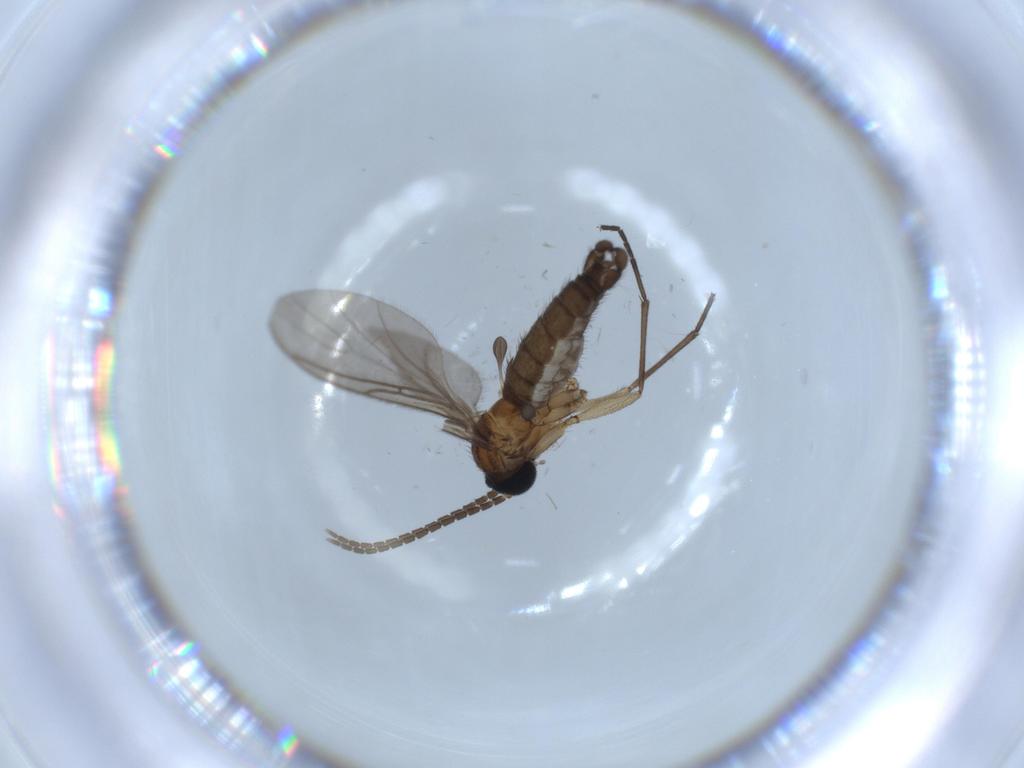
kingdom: Animalia
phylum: Arthropoda
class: Insecta
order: Diptera
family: Sciaridae
